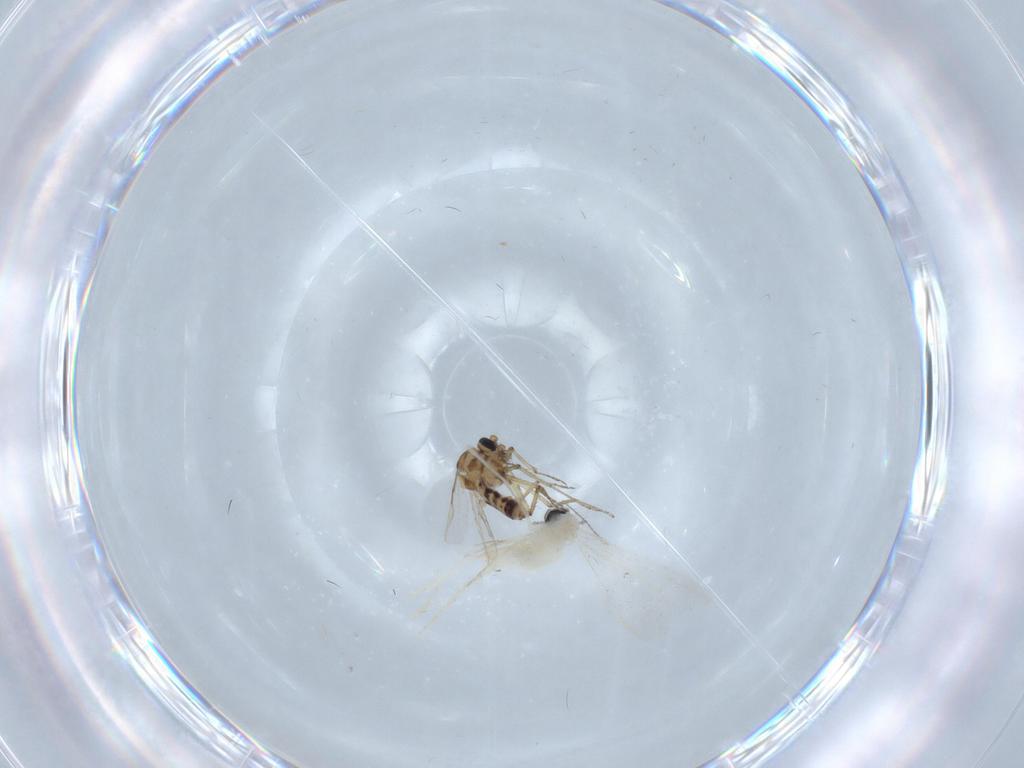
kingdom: Animalia
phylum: Arthropoda
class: Insecta
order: Diptera
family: Cecidomyiidae
